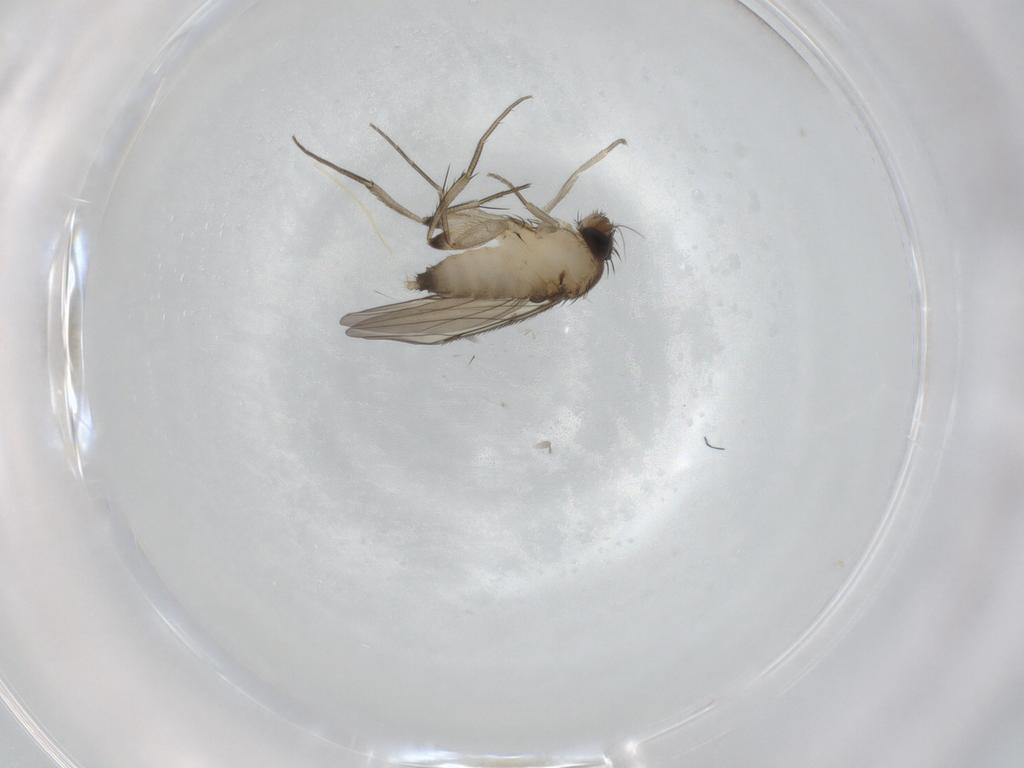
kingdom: Animalia
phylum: Arthropoda
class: Insecta
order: Diptera
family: Phoridae
